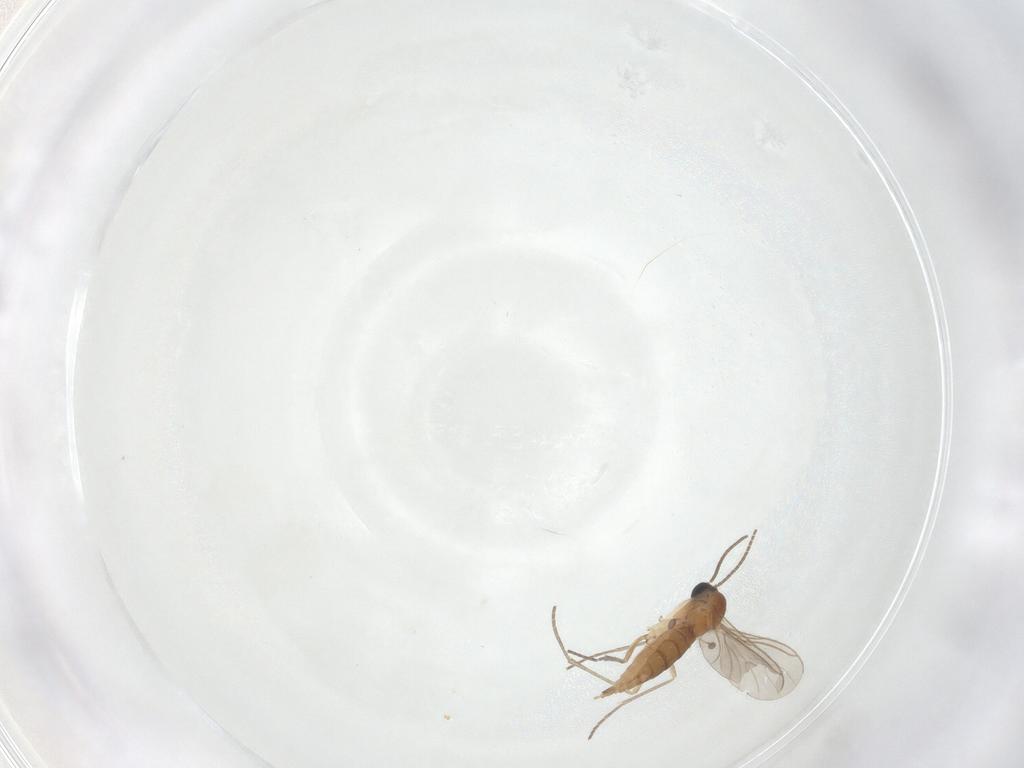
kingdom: Animalia
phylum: Arthropoda
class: Insecta
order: Diptera
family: Sciaridae
